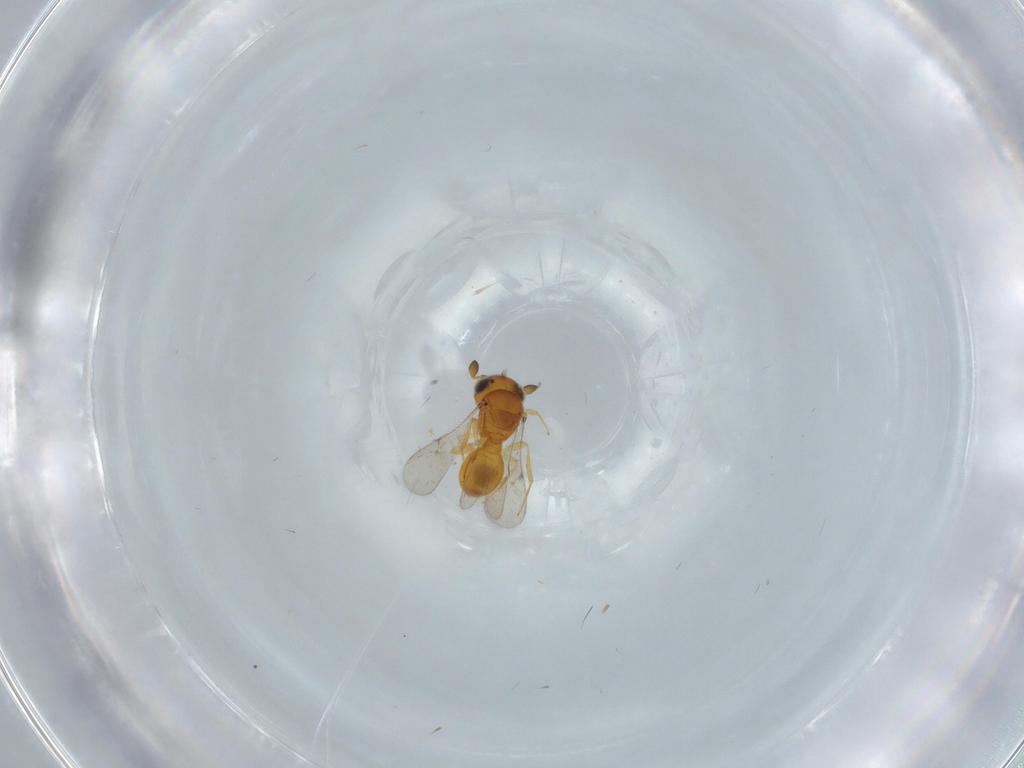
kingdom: Animalia
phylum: Arthropoda
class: Insecta
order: Hymenoptera
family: Scelionidae
